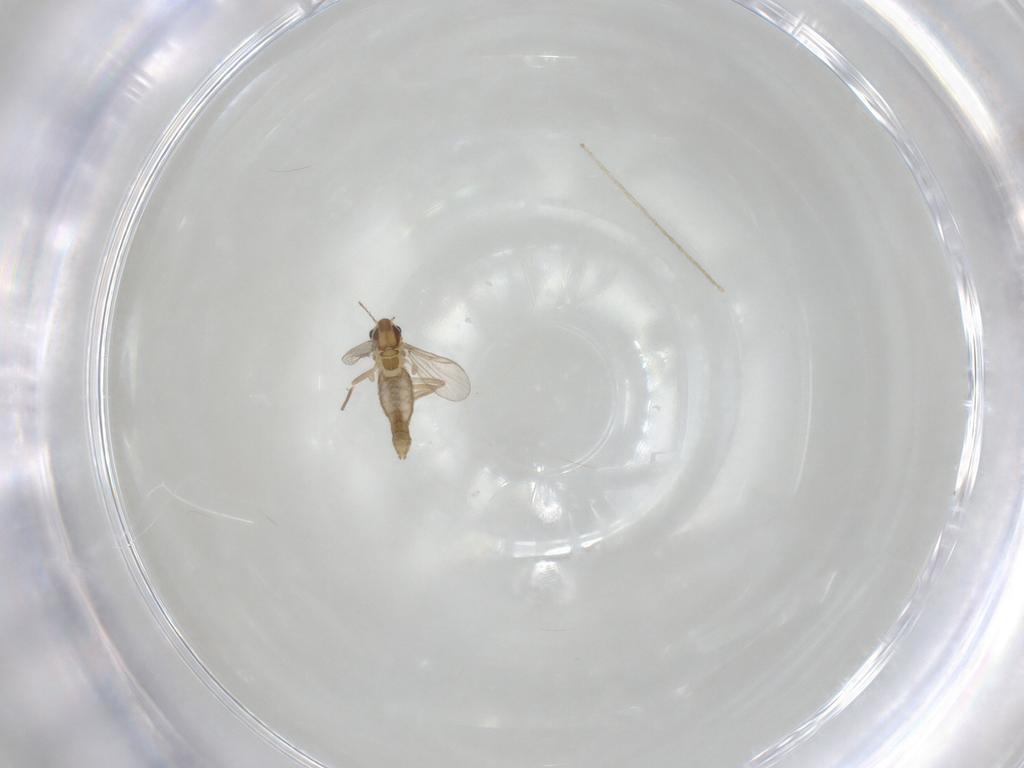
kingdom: Animalia
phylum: Arthropoda
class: Insecta
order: Diptera
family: Chironomidae
